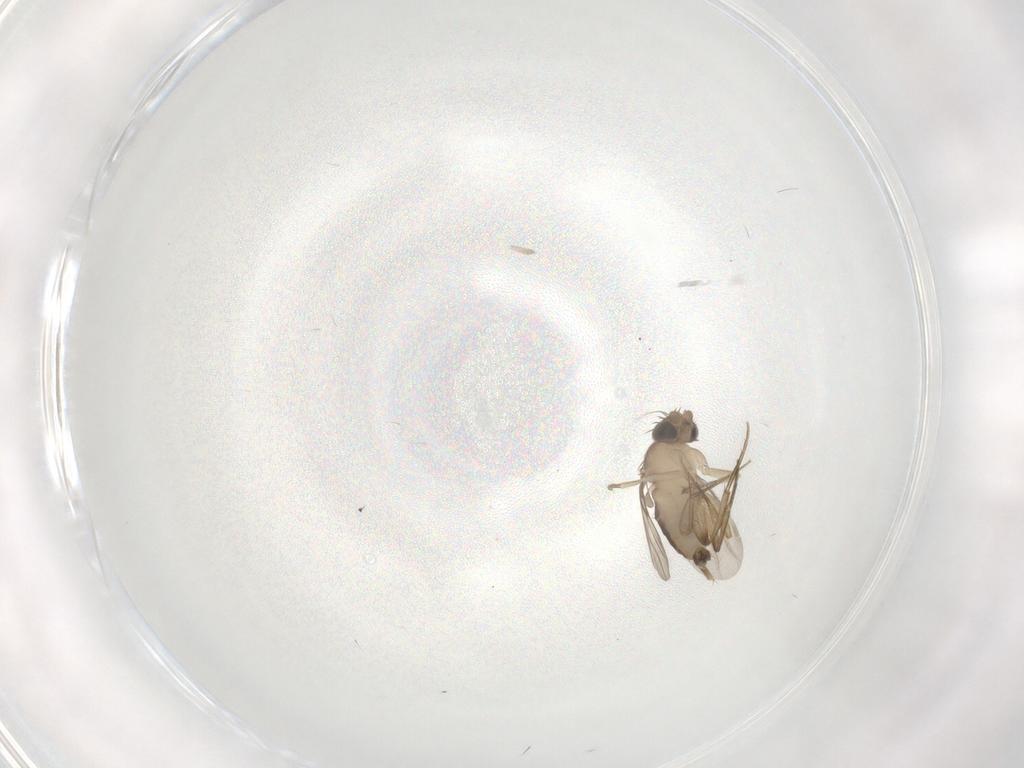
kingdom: Animalia
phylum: Arthropoda
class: Insecta
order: Diptera
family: Phoridae
